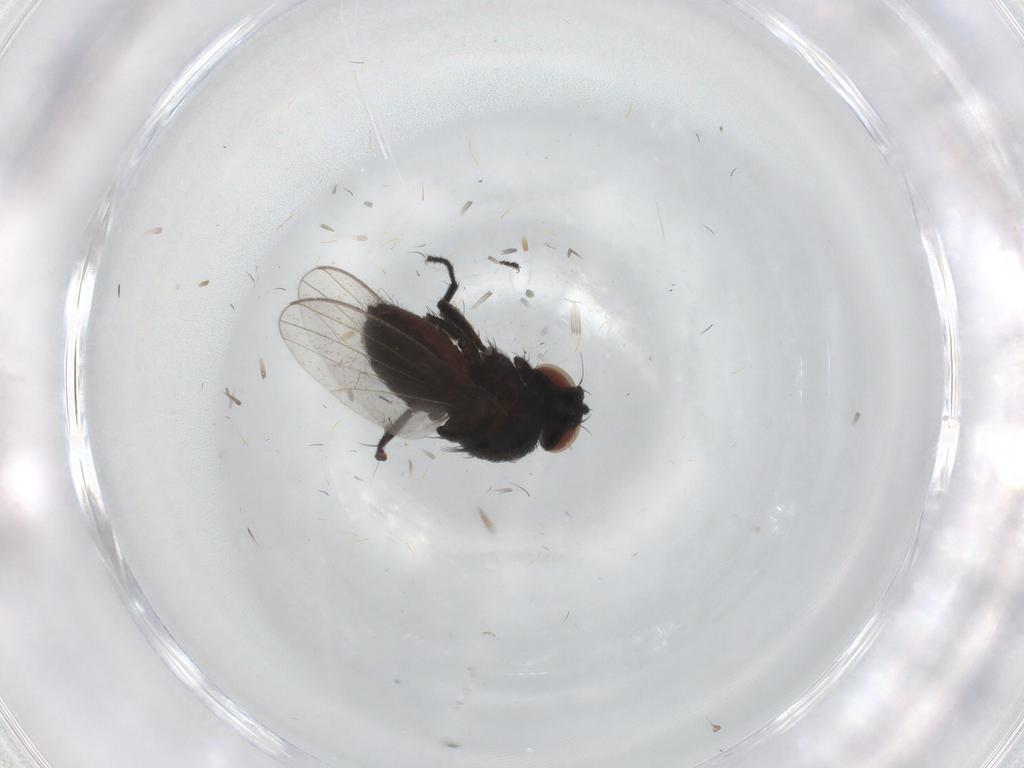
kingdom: Animalia
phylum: Arthropoda
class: Insecta
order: Diptera
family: Milichiidae
